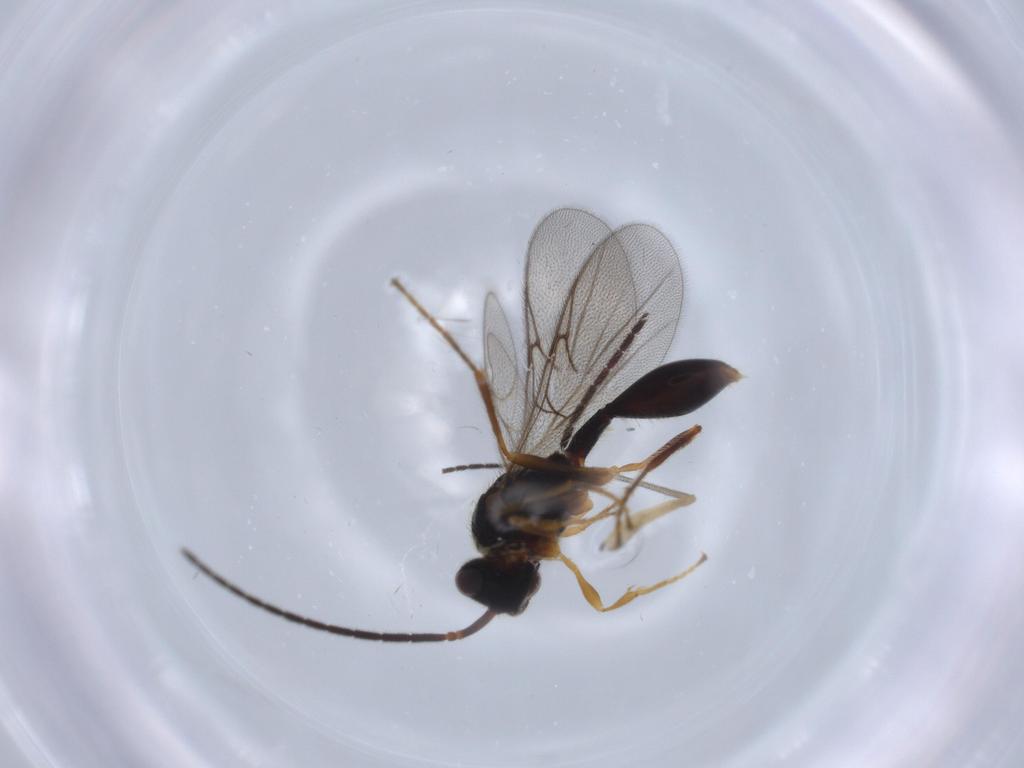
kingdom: Animalia
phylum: Arthropoda
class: Insecta
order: Hymenoptera
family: Diapriidae
